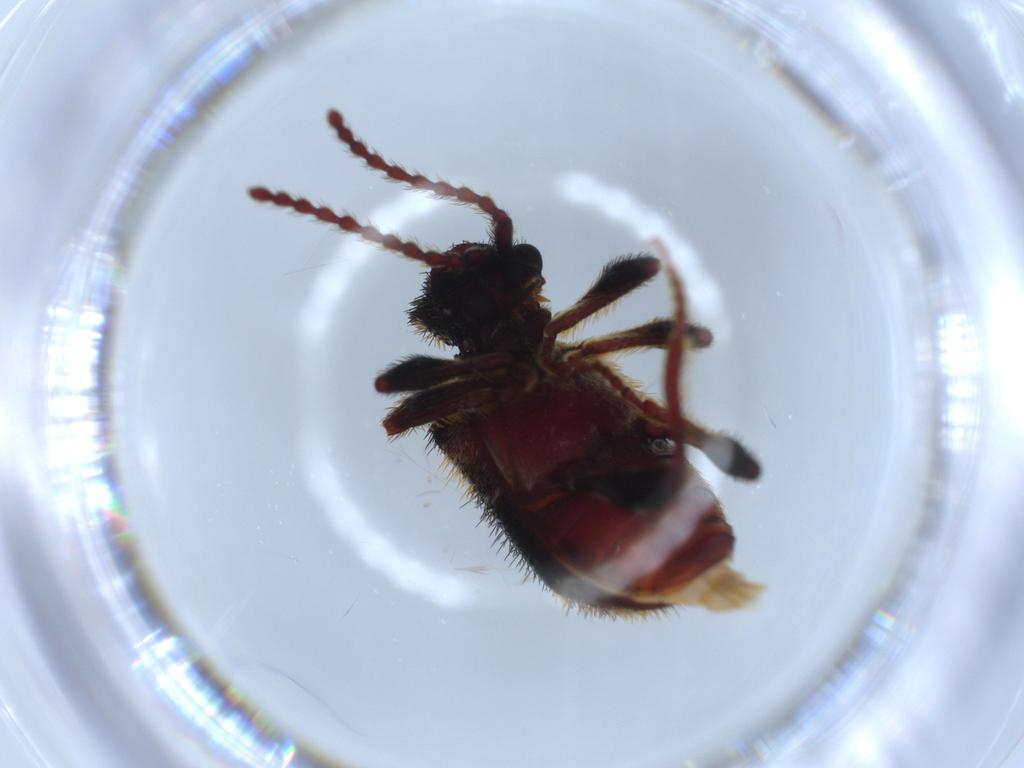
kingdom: Animalia
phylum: Arthropoda
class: Insecta
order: Coleoptera
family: Ptinidae
